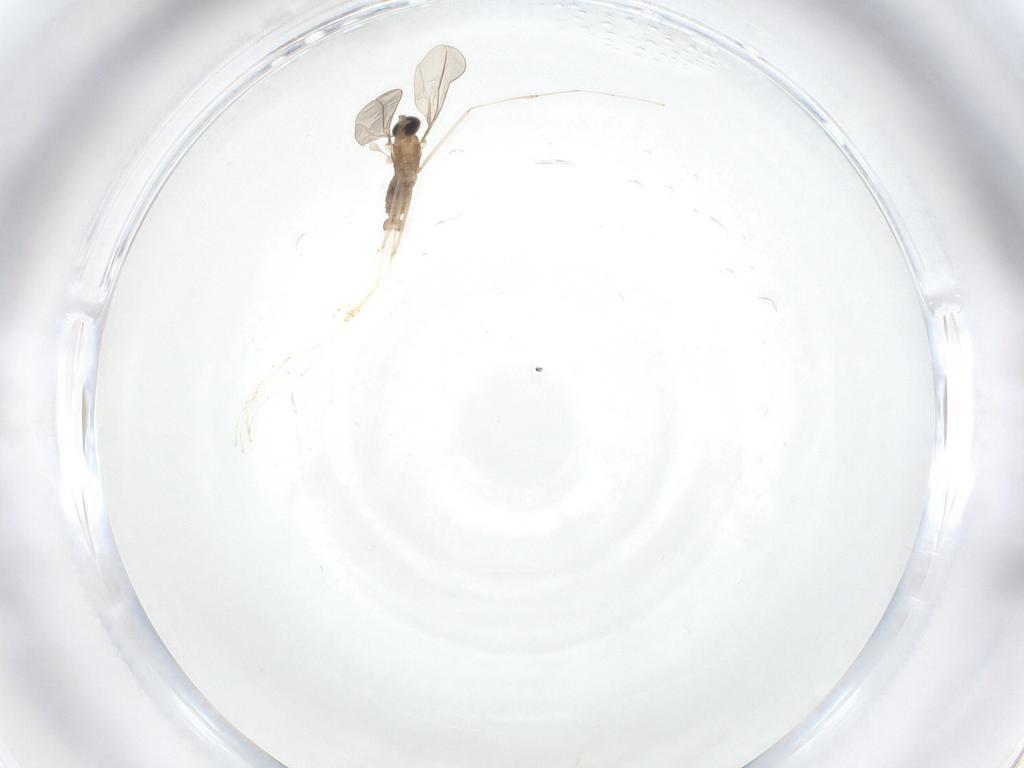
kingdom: Animalia
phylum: Arthropoda
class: Insecta
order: Diptera
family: Cecidomyiidae
